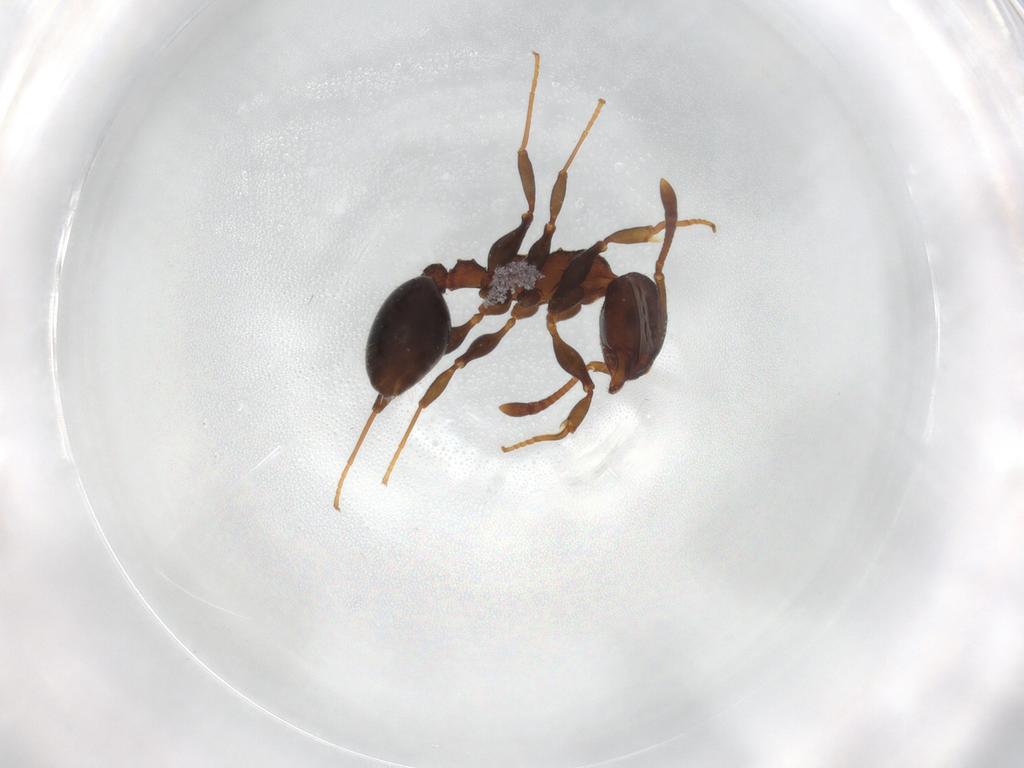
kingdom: Animalia
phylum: Arthropoda
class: Insecta
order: Hymenoptera
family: Formicidae
